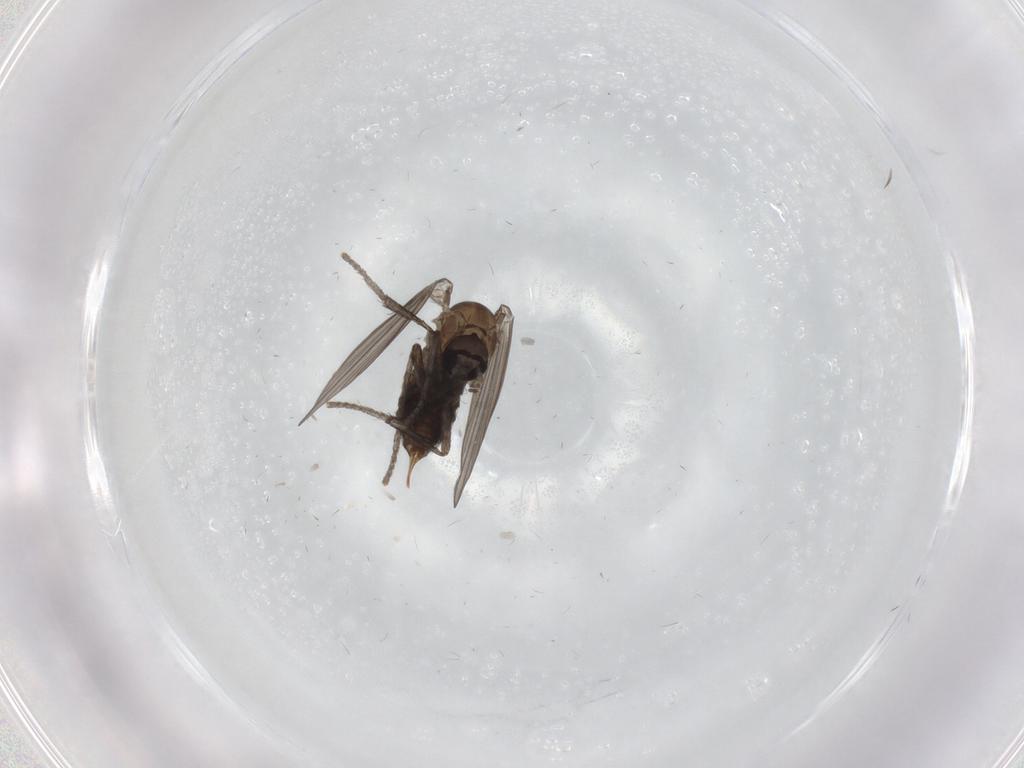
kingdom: Animalia
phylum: Arthropoda
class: Insecta
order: Diptera
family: Psychodidae
